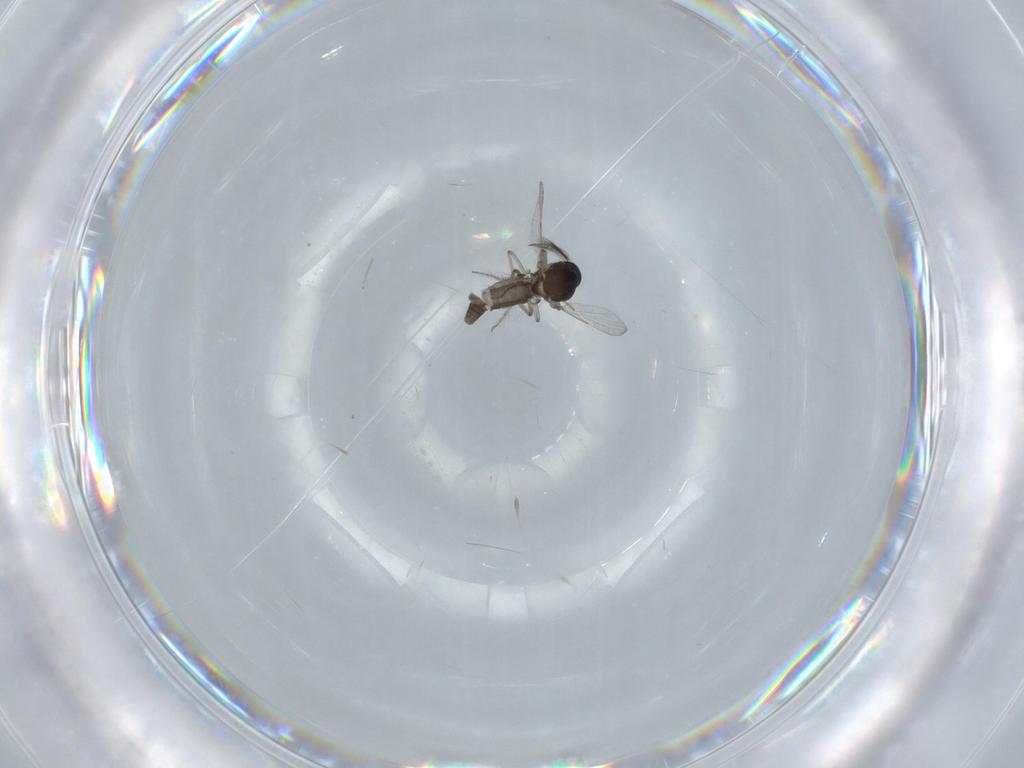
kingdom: Animalia
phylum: Arthropoda
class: Insecta
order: Diptera
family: Ceratopogonidae
